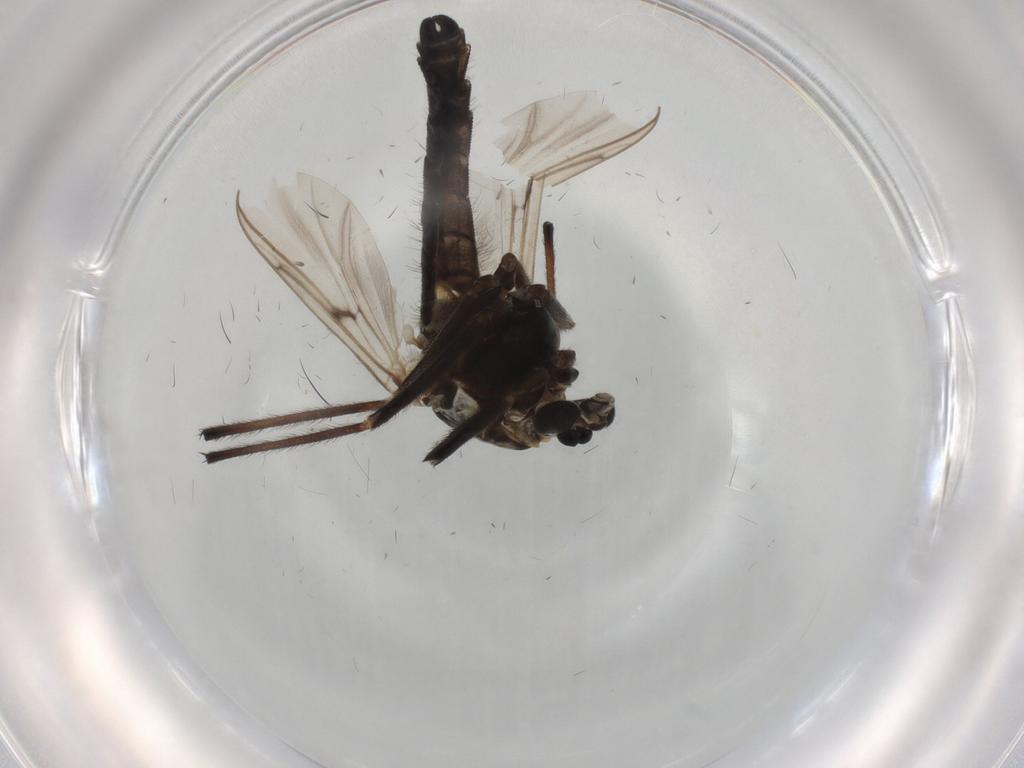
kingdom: Animalia
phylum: Arthropoda
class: Insecta
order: Diptera
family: Chironomidae
